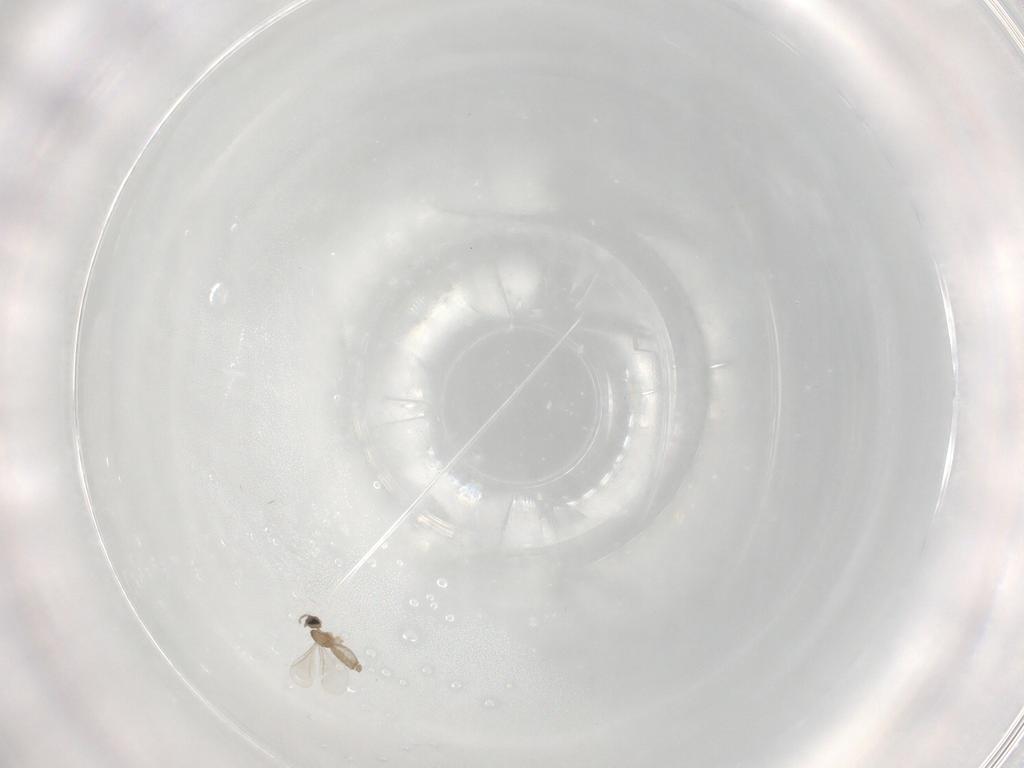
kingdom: Animalia
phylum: Arthropoda
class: Insecta
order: Diptera
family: Cecidomyiidae
